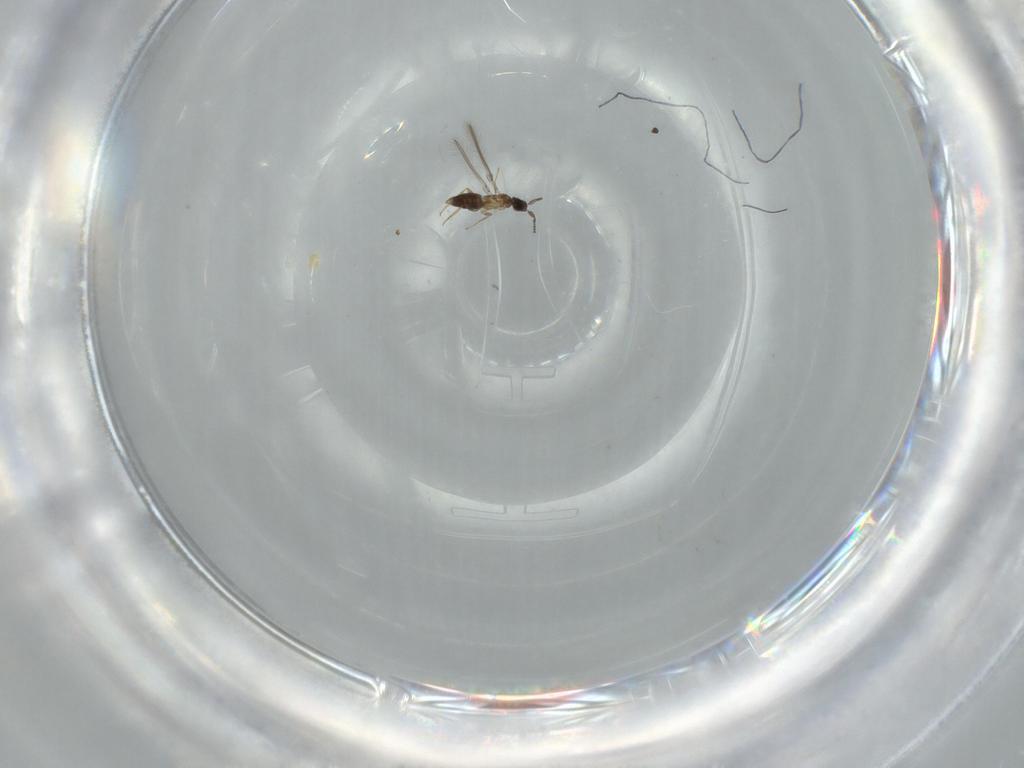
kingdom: Animalia
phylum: Arthropoda
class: Insecta
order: Hymenoptera
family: Mymaridae
